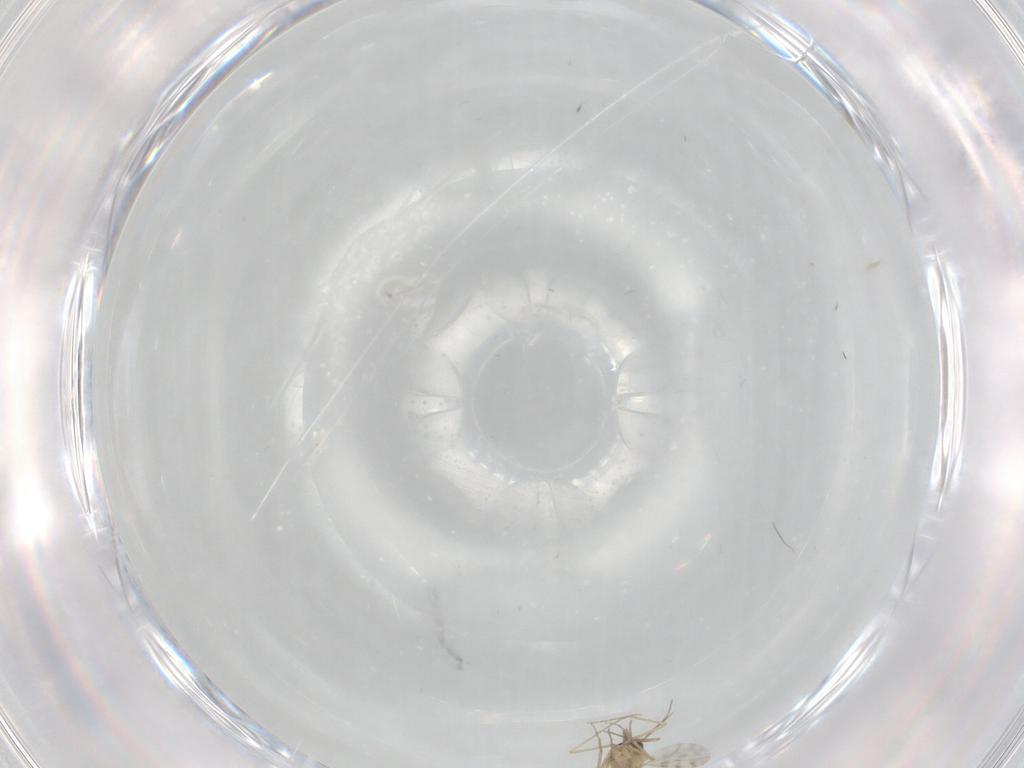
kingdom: Animalia
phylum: Arthropoda
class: Insecta
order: Diptera
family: Ceratopogonidae
